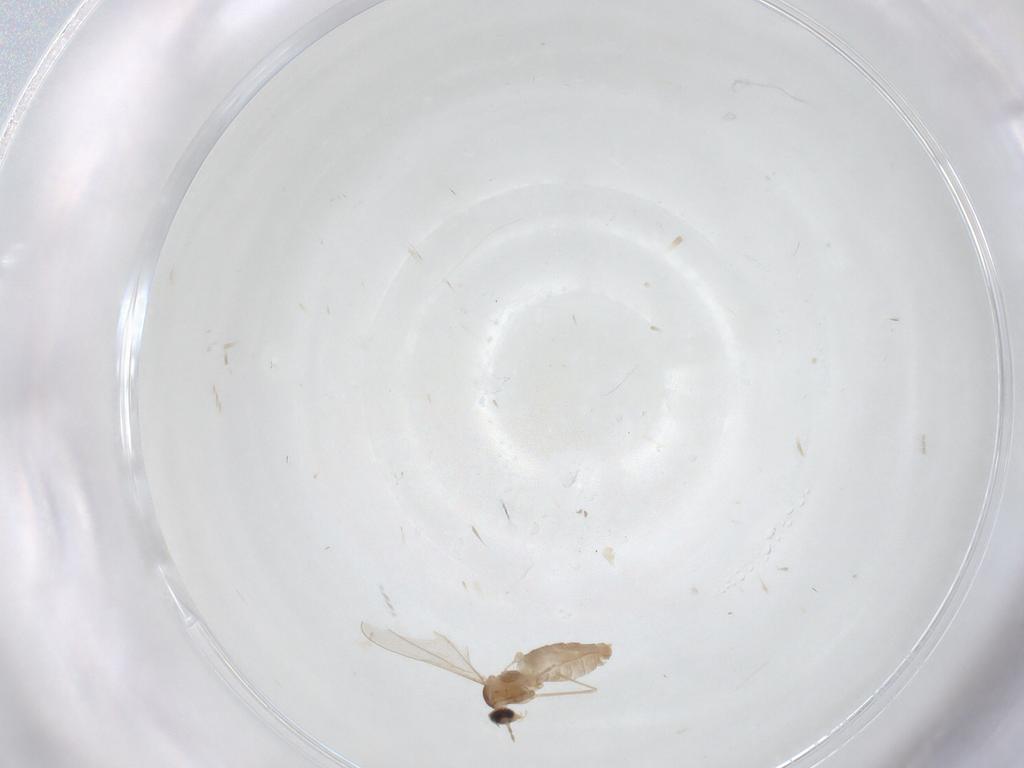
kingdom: Animalia
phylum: Arthropoda
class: Insecta
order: Diptera
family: Cecidomyiidae
